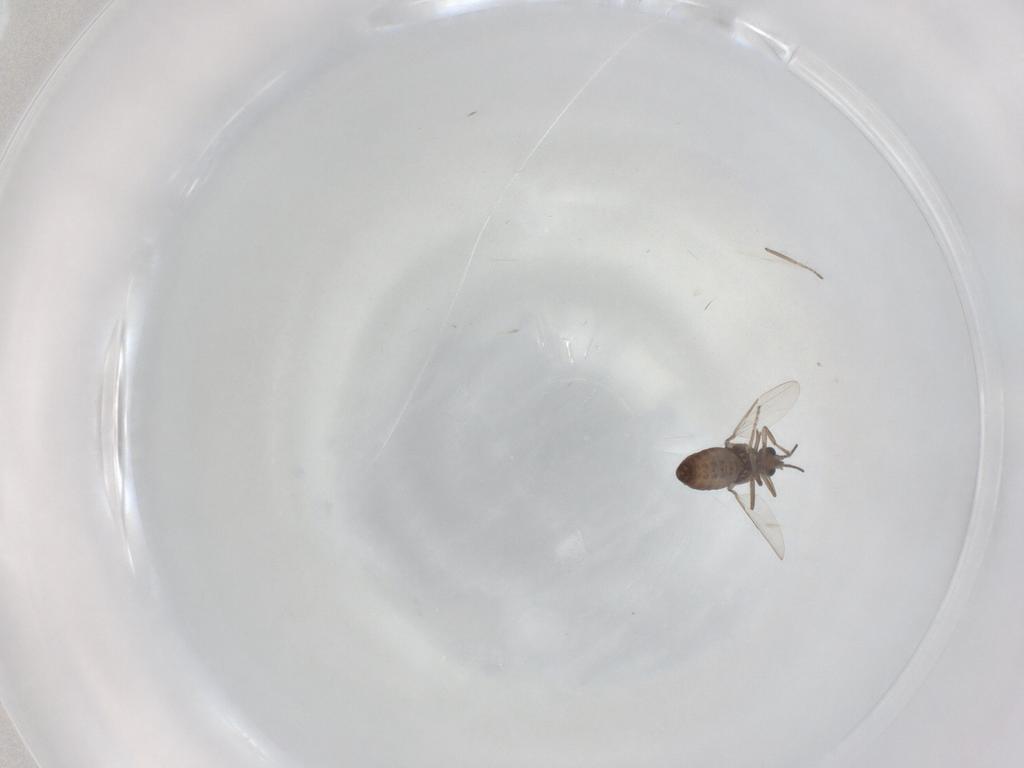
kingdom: Animalia
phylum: Arthropoda
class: Insecta
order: Diptera
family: Ceratopogonidae
